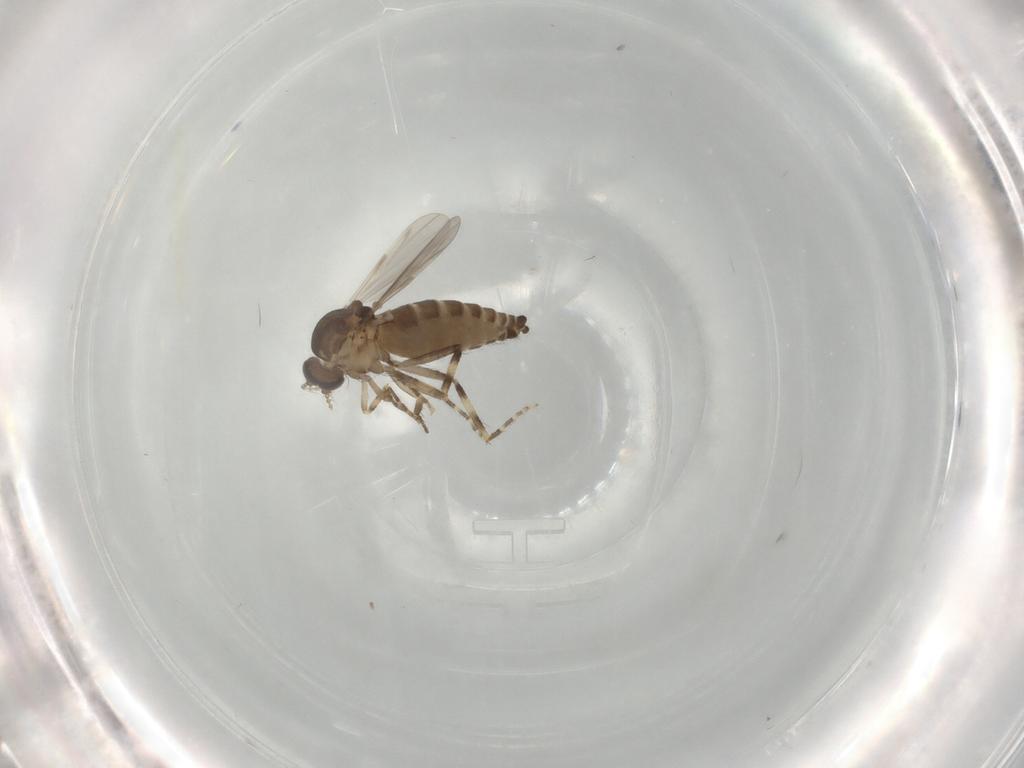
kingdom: Animalia
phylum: Arthropoda
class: Insecta
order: Diptera
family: Ceratopogonidae
